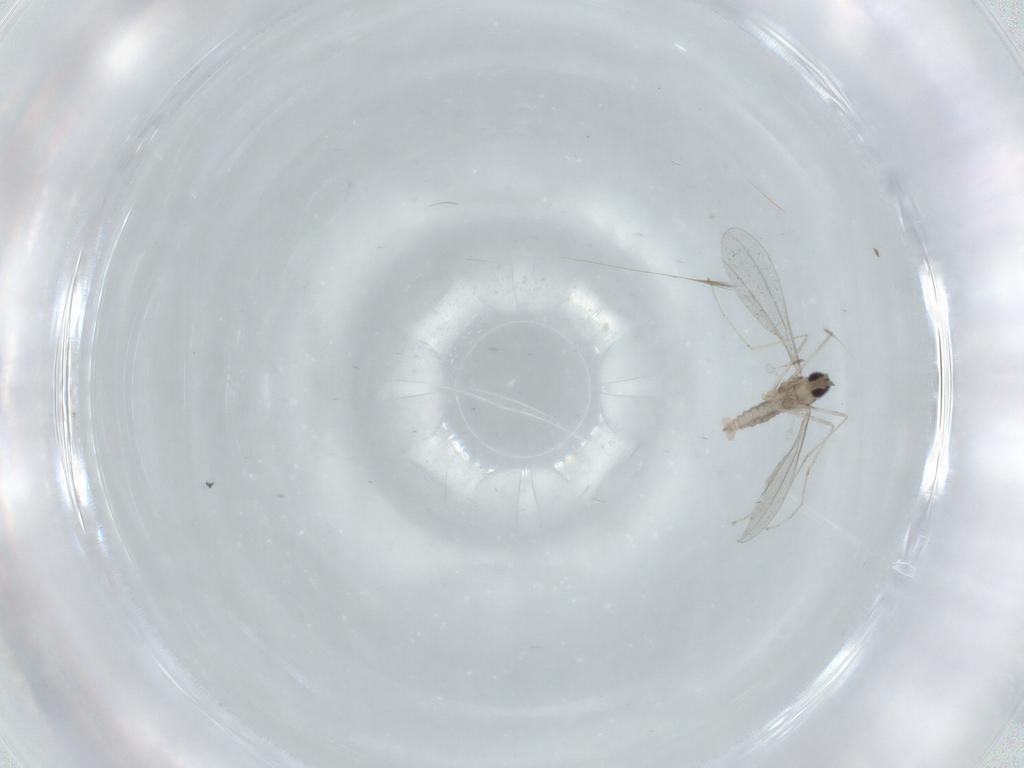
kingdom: Animalia
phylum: Arthropoda
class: Insecta
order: Diptera
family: Cecidomyiidae
